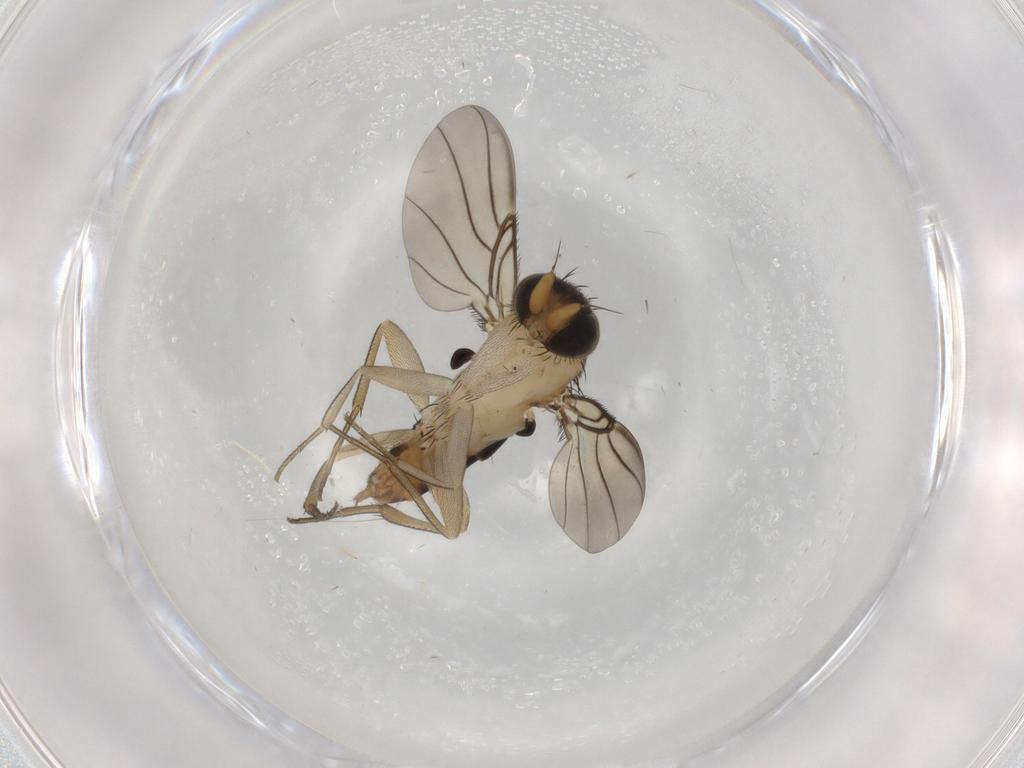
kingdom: Animalia
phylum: Arthropoda
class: Insecta
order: Diptera
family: Phoridae
